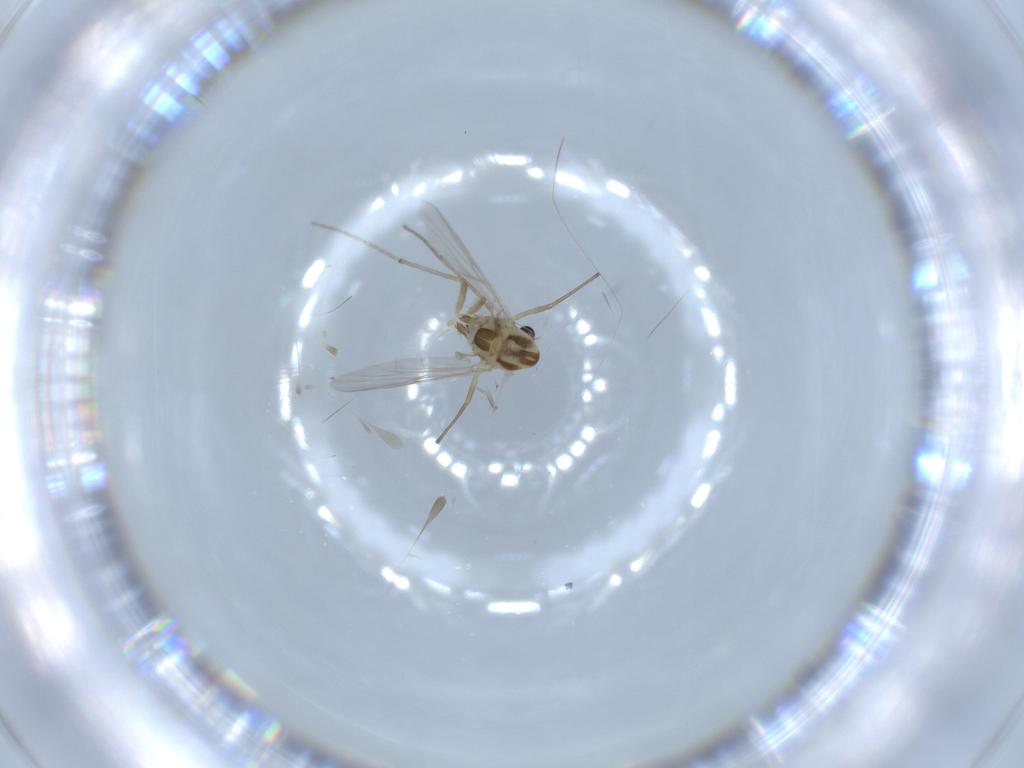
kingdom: Animalia
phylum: Arthropoda
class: Insecta
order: Diptera
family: Chironomidae
